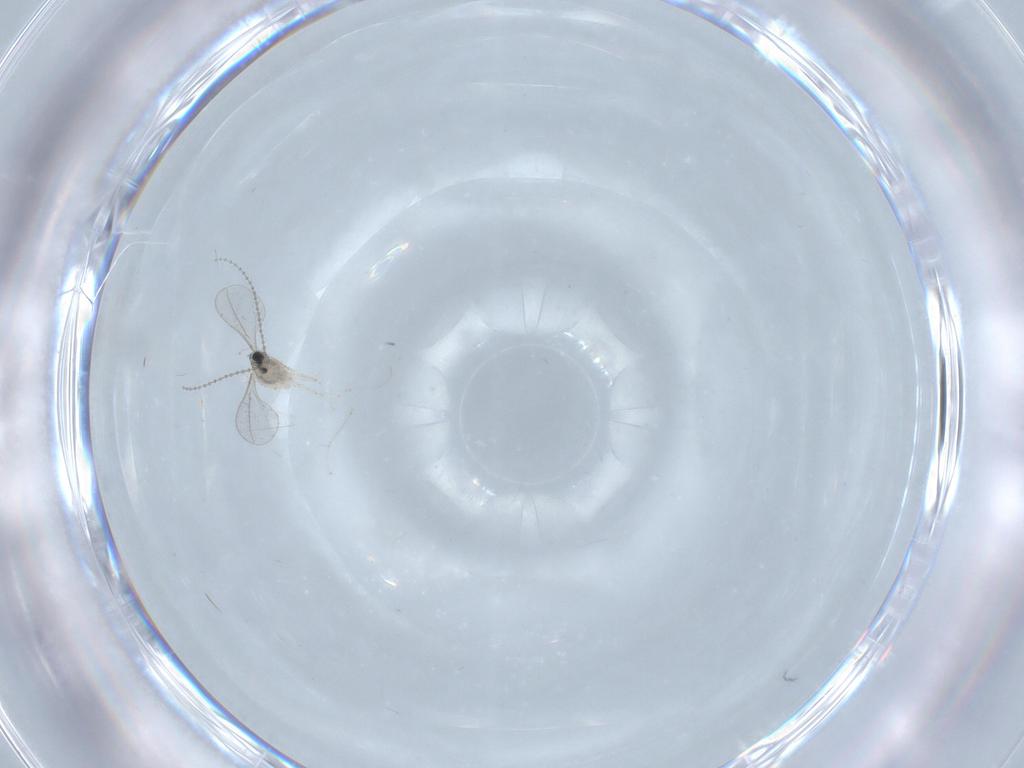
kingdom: Animalia
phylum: Arthropoda
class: Insecta
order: Diptera
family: Cecidomyiidae
